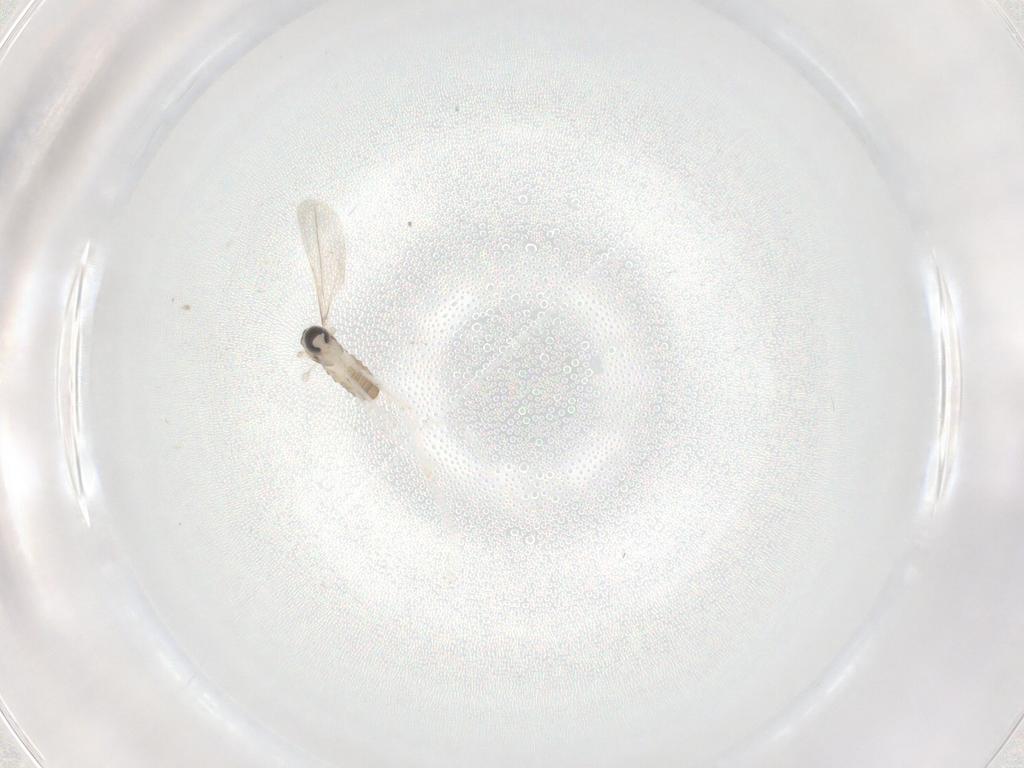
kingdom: Animalia
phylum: Arthropoda
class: Insecta
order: Diptera
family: Cecidomyiidae
